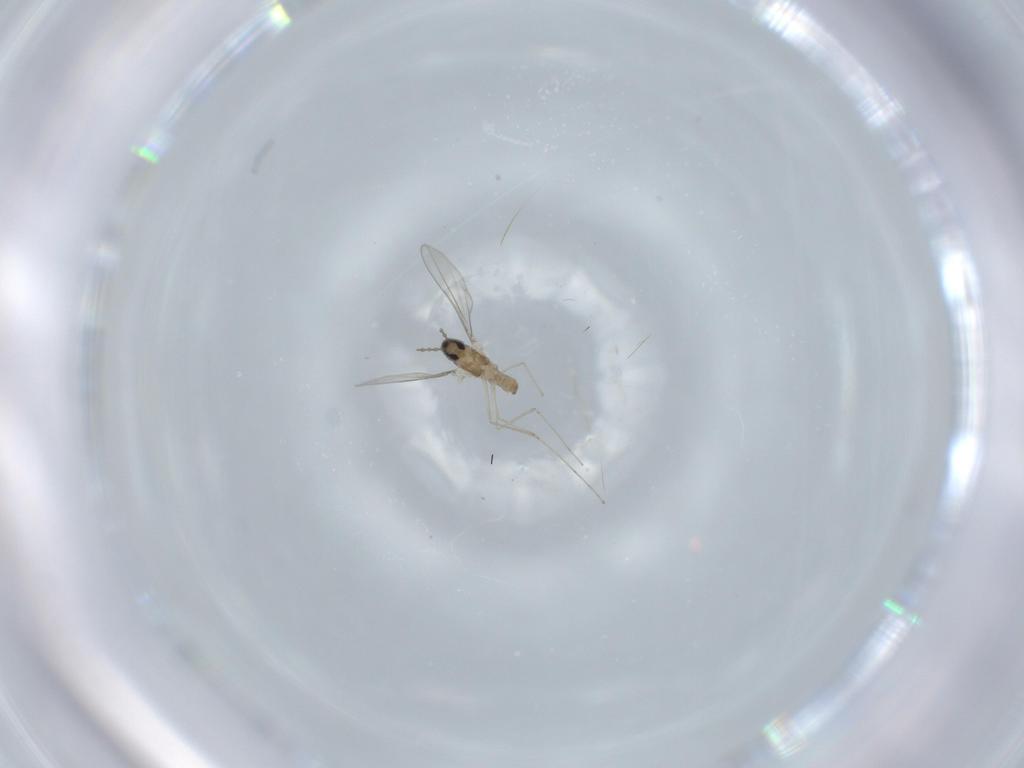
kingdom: Animalia
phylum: Arthropoda
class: Insecta
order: Diptera
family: Cecidomyiidae
